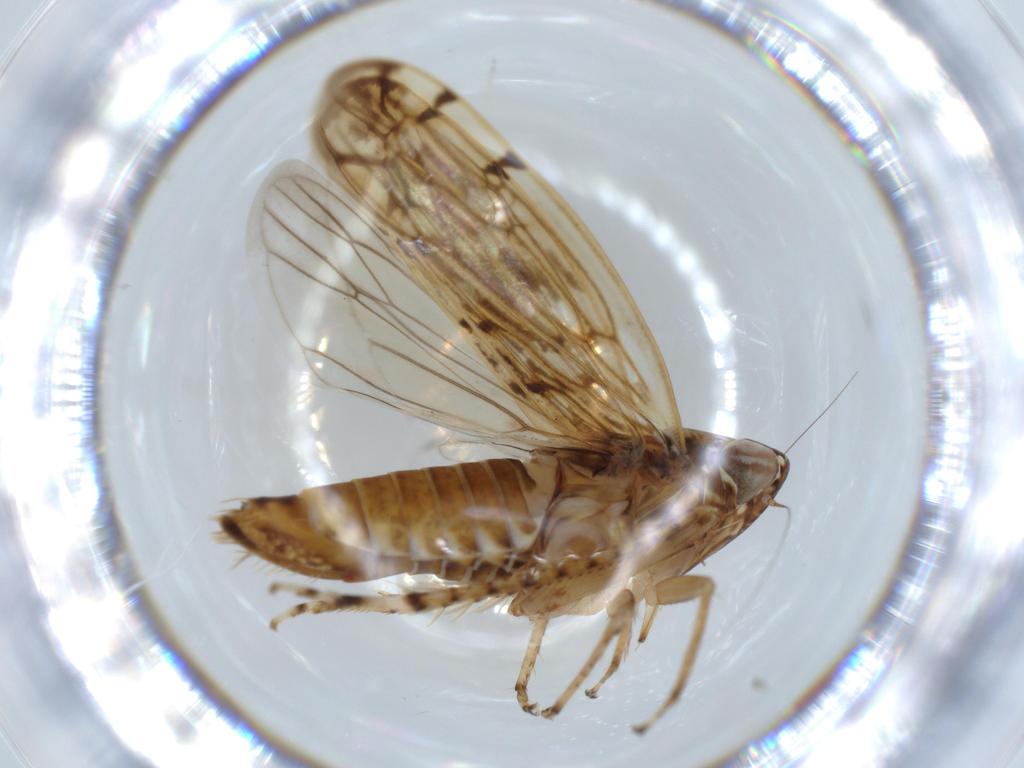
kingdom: Animalia
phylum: Arthropoda
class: Insecta
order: Hemiptera
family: Cicadellidae
